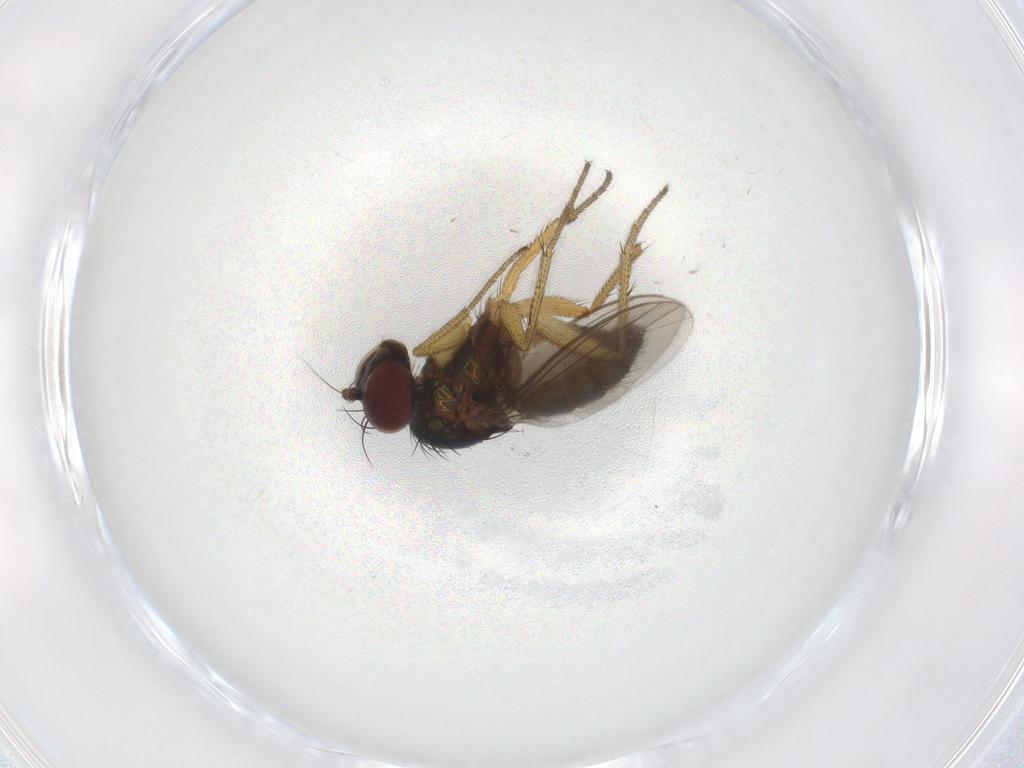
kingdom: Animalia
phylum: Arthropoda
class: Insecta
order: Diptera
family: Dolichopodidae
